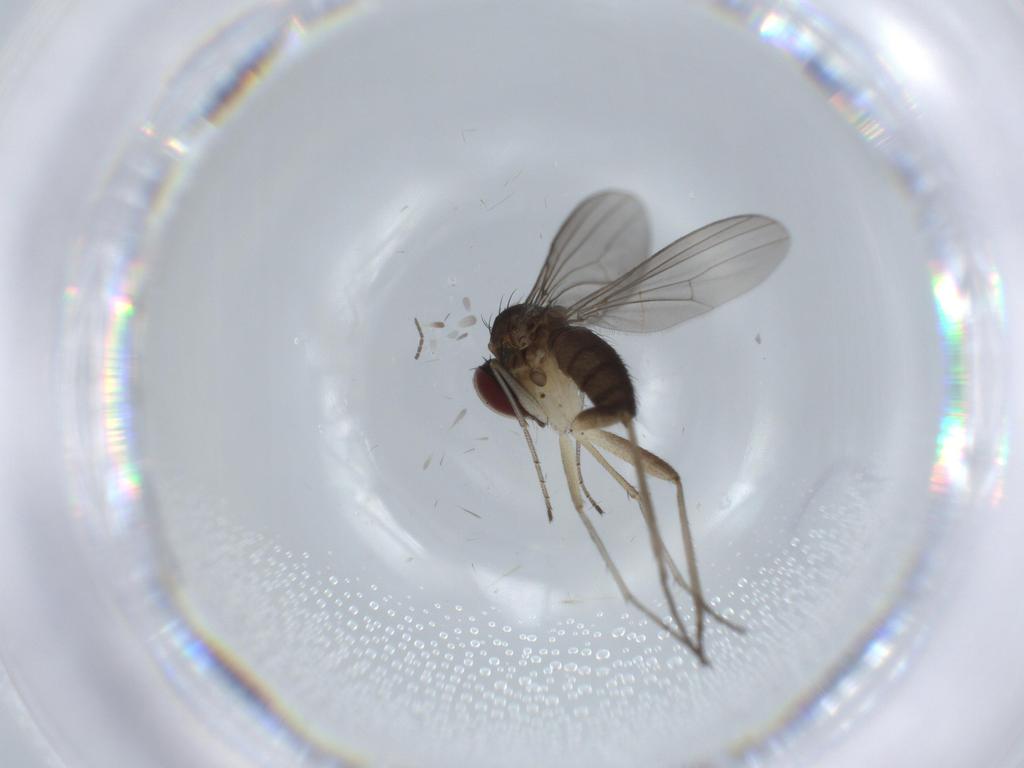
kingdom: Animalia
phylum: Arthropoda
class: Insecta
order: Diptera
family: Dolichopodidae
